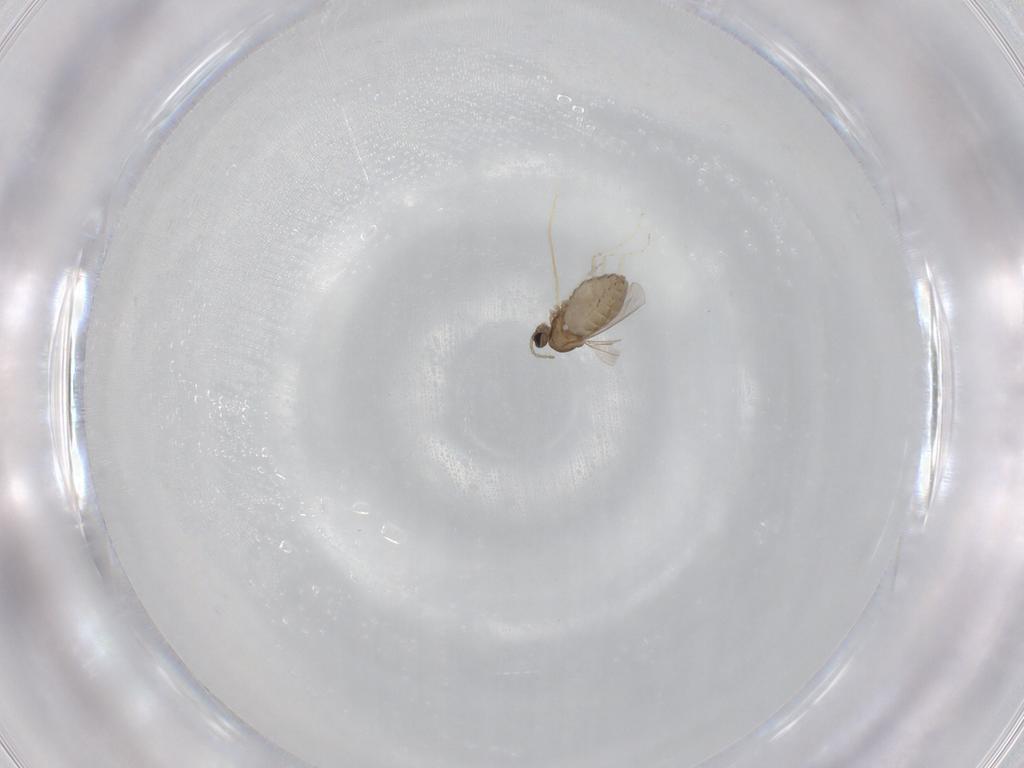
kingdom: Animalia
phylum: Arthropoda
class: Insecta
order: Diptera
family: Cecidomyiidae
